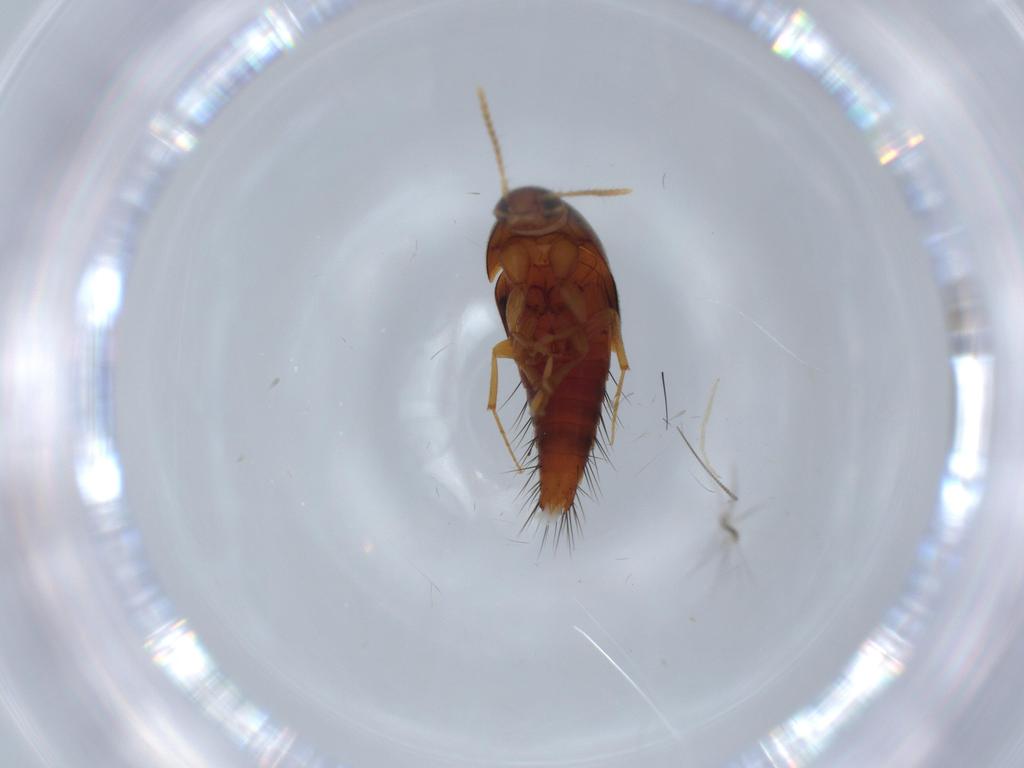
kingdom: Animalia
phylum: Arthropoda
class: Insecta
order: Coleoptera
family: Staphylinidae
